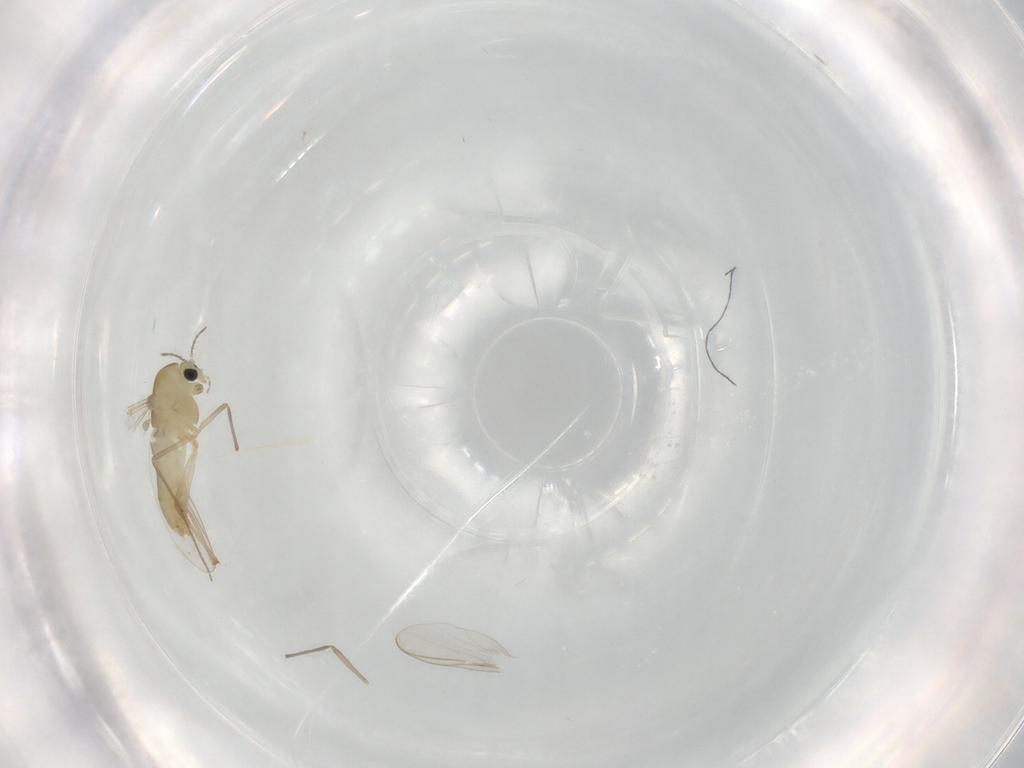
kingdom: Animalia
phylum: Arthropoda
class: Insecta
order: Diptera
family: Chironomidae
